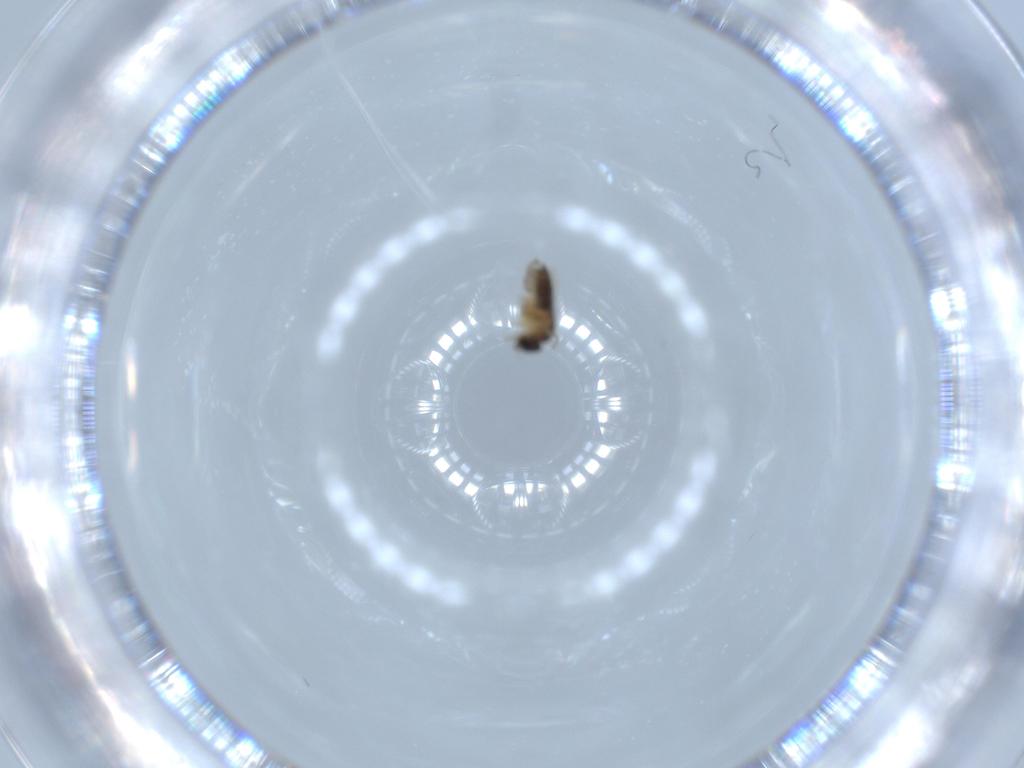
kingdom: Animalia
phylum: Arthropoda
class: Insecta
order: Diptera
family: Phoridae
